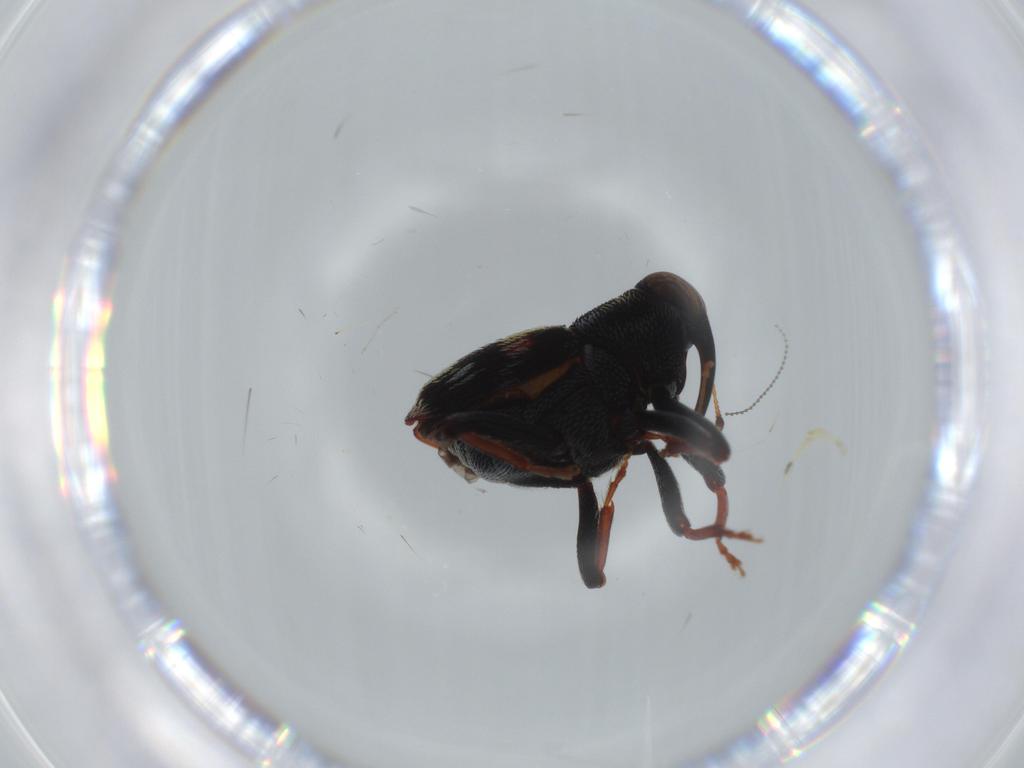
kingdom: Animalia
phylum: Arthropoda
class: Insecta
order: Coleoptera
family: Curculionidae
